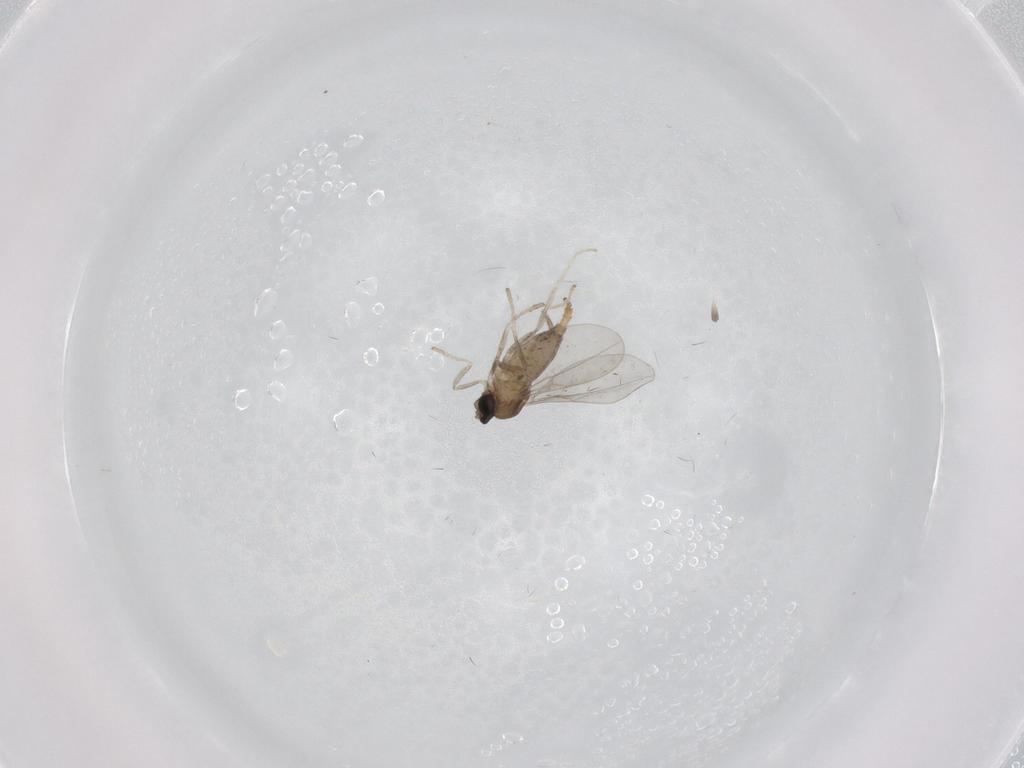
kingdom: Animalia
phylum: Arthropoda
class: Insecta
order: Diptera
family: Cecidomyiidae
